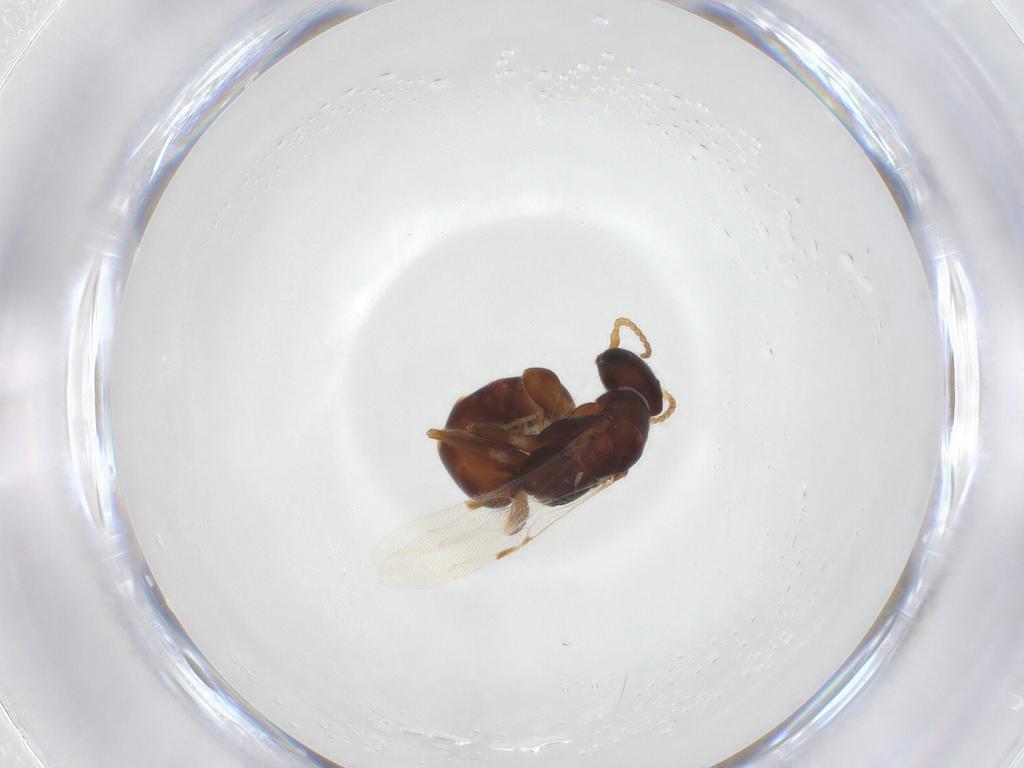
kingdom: Animalia
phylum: Arthropoda
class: Insecta
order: Hymenoptera
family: Bethylidae
